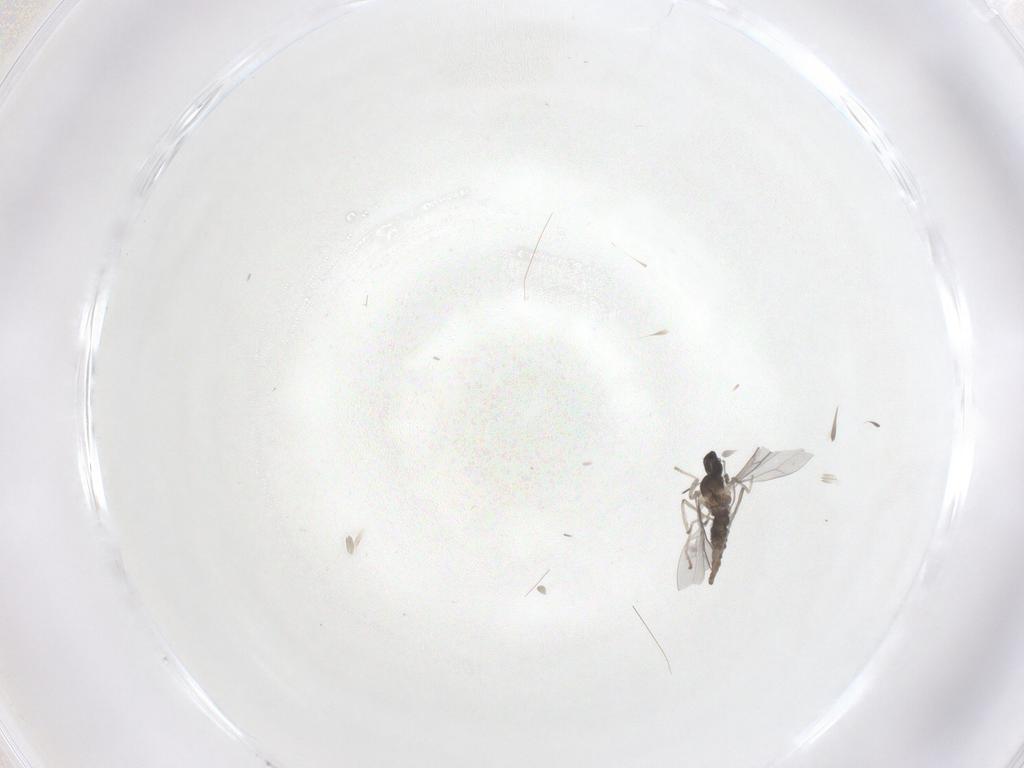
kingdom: Animalia
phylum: Arthropoda
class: Insecta
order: Diptera
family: Cecidomyiidae
